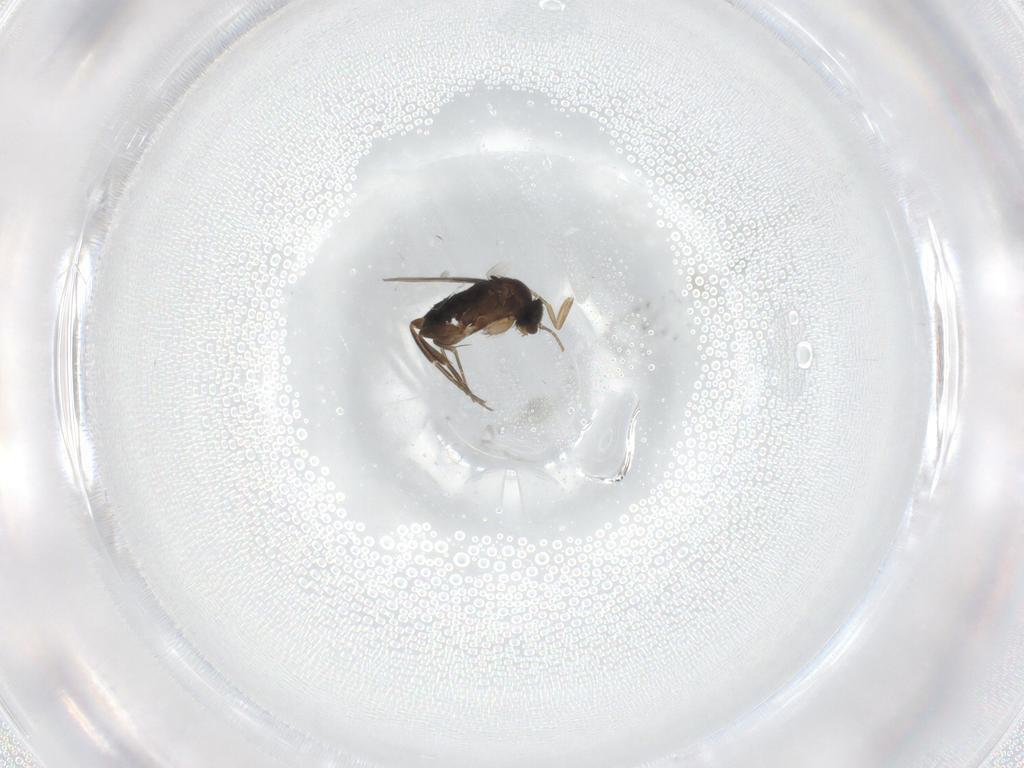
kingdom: Animalia
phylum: Arthropoda
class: Insecta
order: Diptera
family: Phoridae
